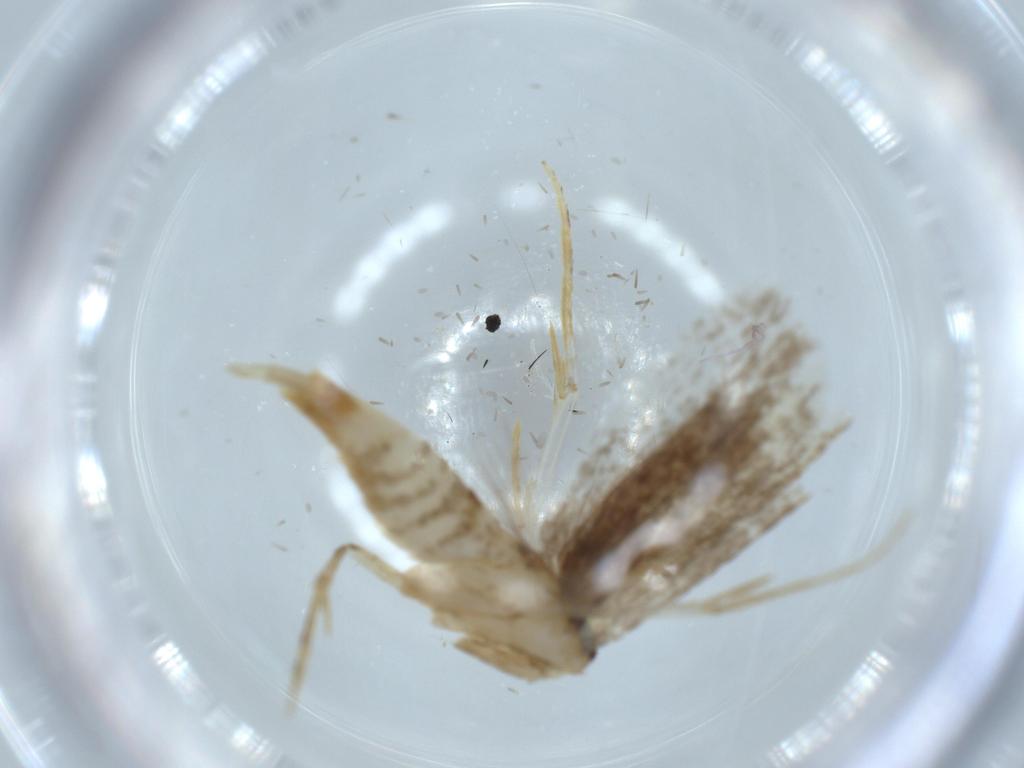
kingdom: Animalia
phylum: Arthropoda
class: Insecta
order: Lepidoptera
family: Tineidae
